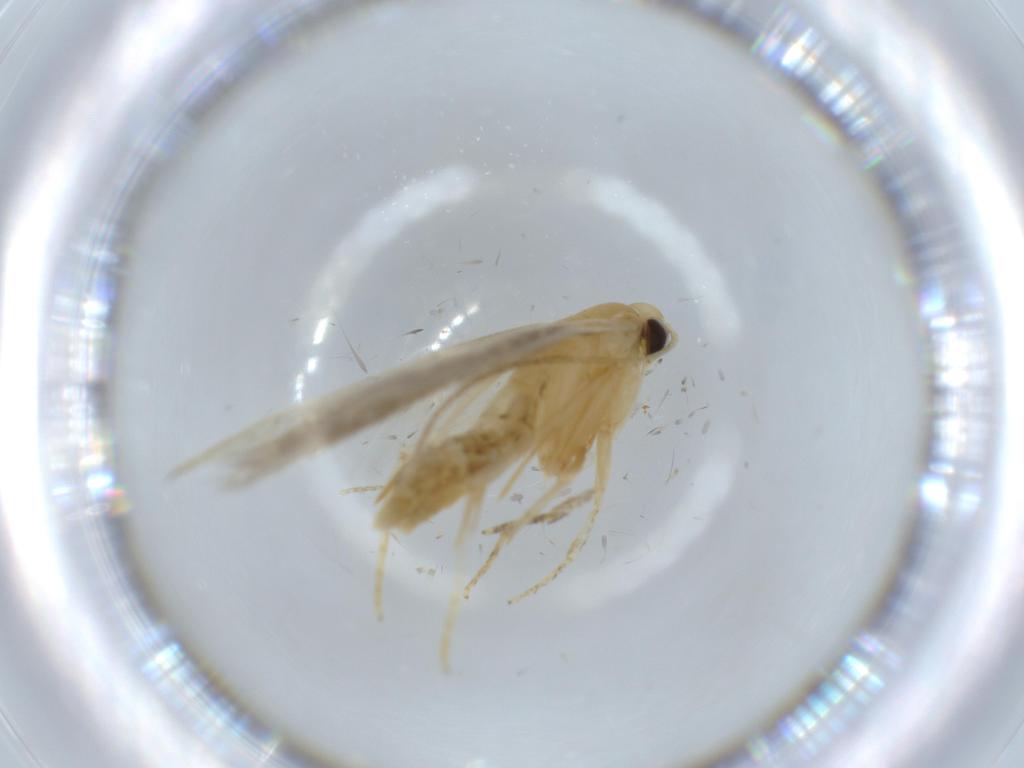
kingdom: Animalia
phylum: Arthropoda
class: Insecta
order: Lepidoptera
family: Autostichidae
